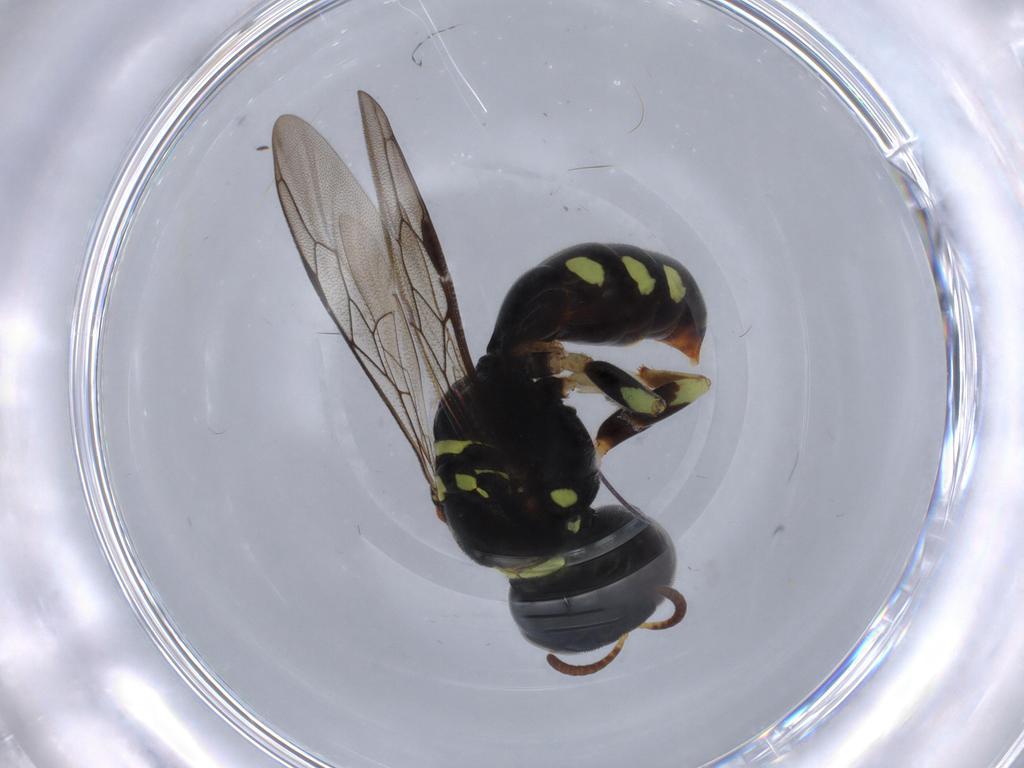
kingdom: Animalia
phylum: Arthropoda
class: Insecta
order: Hymenoptera
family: Crabronidae
